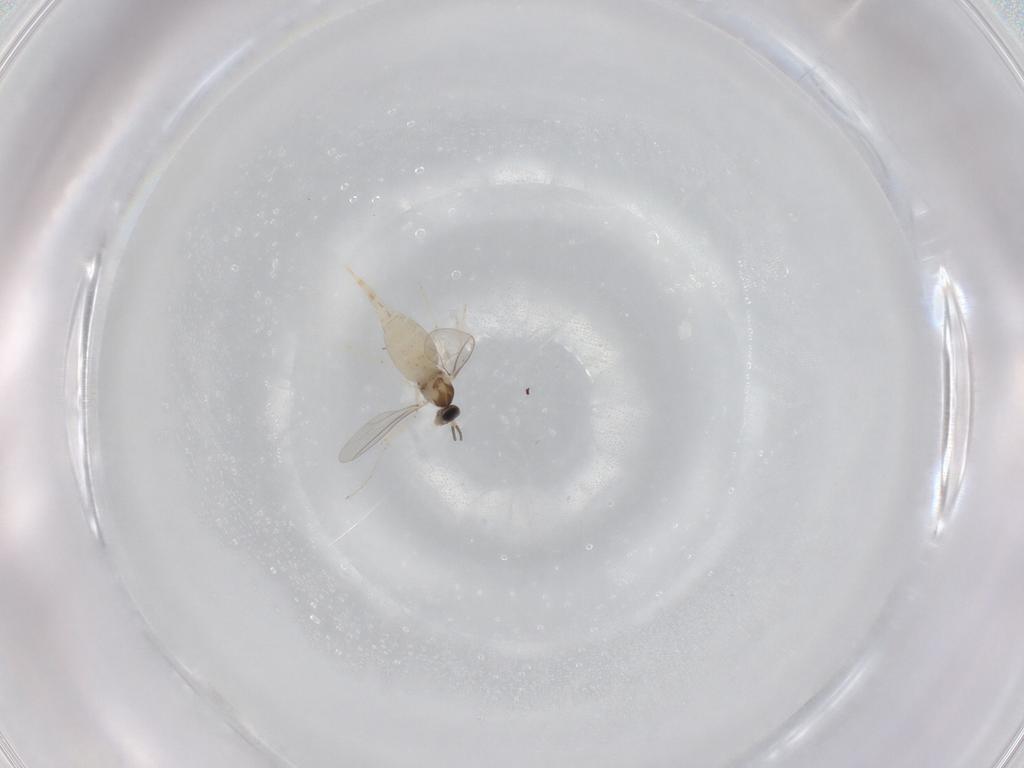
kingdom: Animalia
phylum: Arthropoda
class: Insecta
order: Diptera
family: Cecidomyiidae
